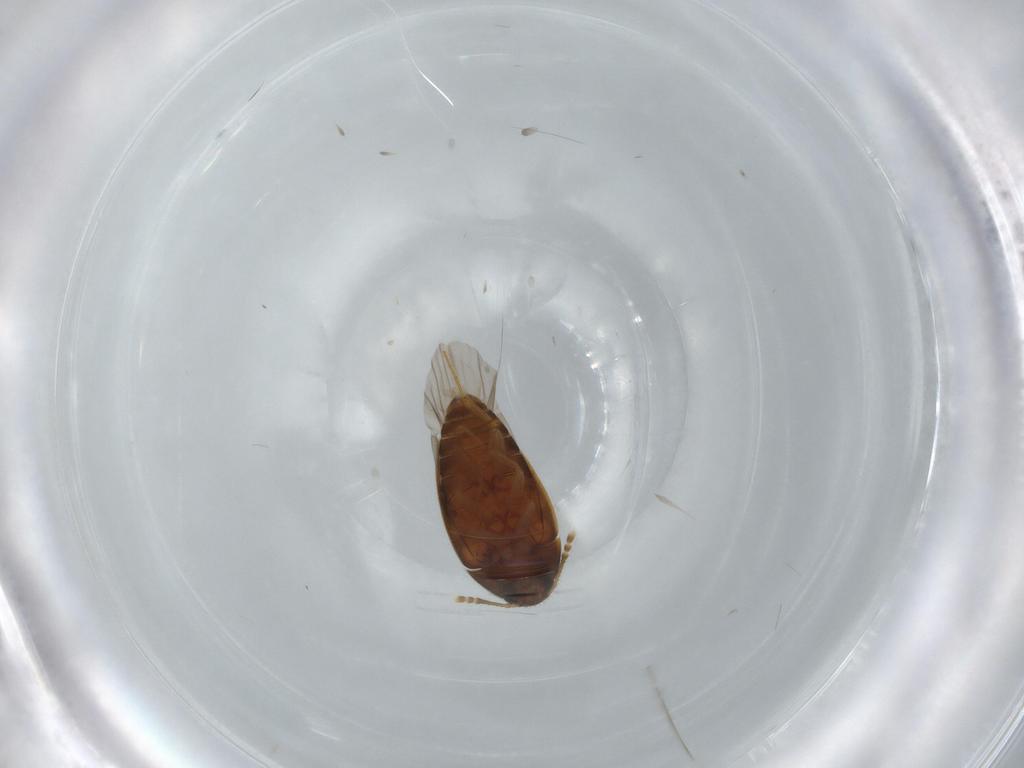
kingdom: Animalia
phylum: Arthropoda
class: Insecta
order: Coleoptera
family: Mycetophagidae
